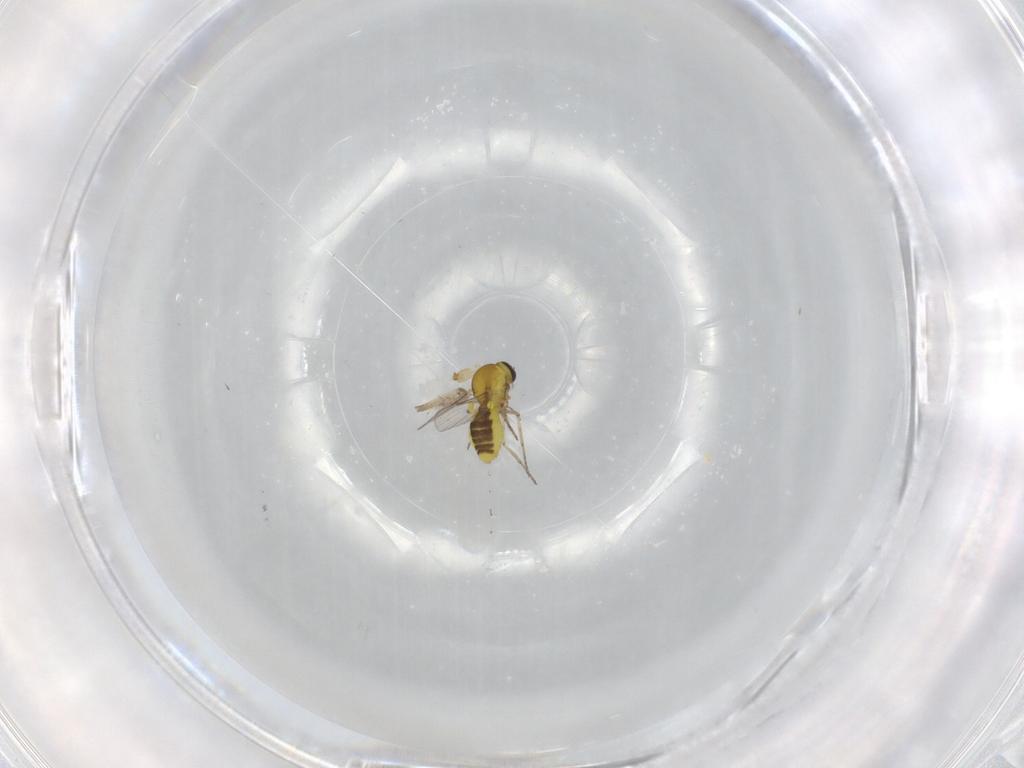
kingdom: Animalia
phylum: Arthropoda
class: Insecta
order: Diptera
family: Ceratopogonidae
